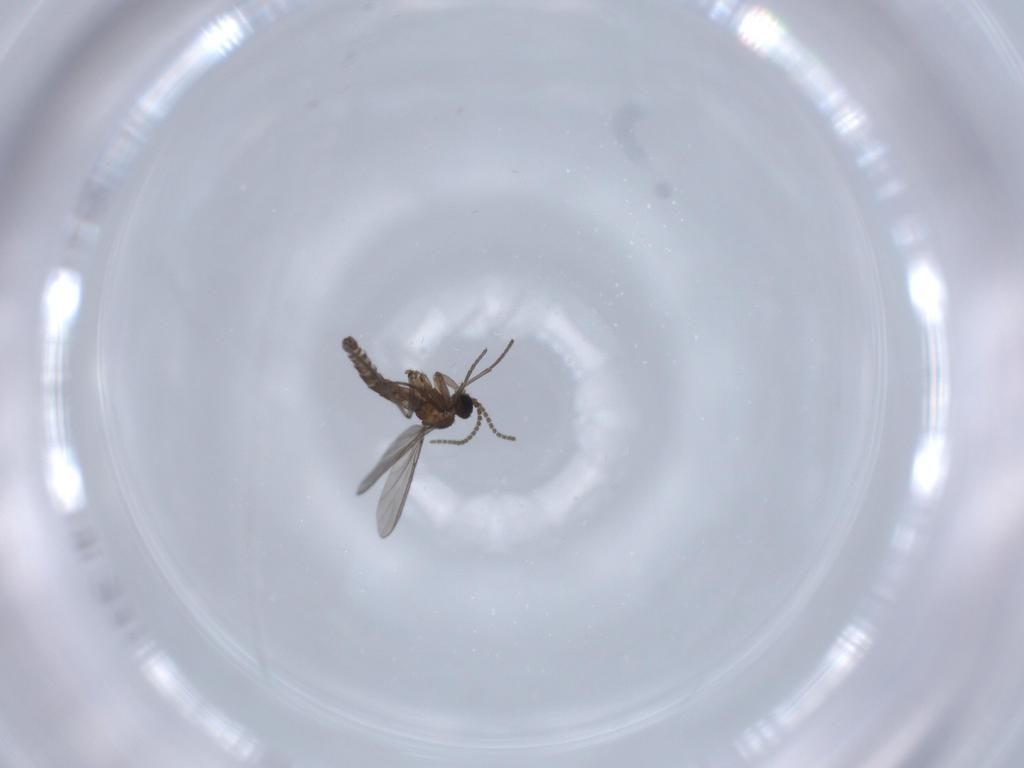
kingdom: Animalia
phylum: Arthropoda
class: Insecta
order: Diptera
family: Chironomidae
